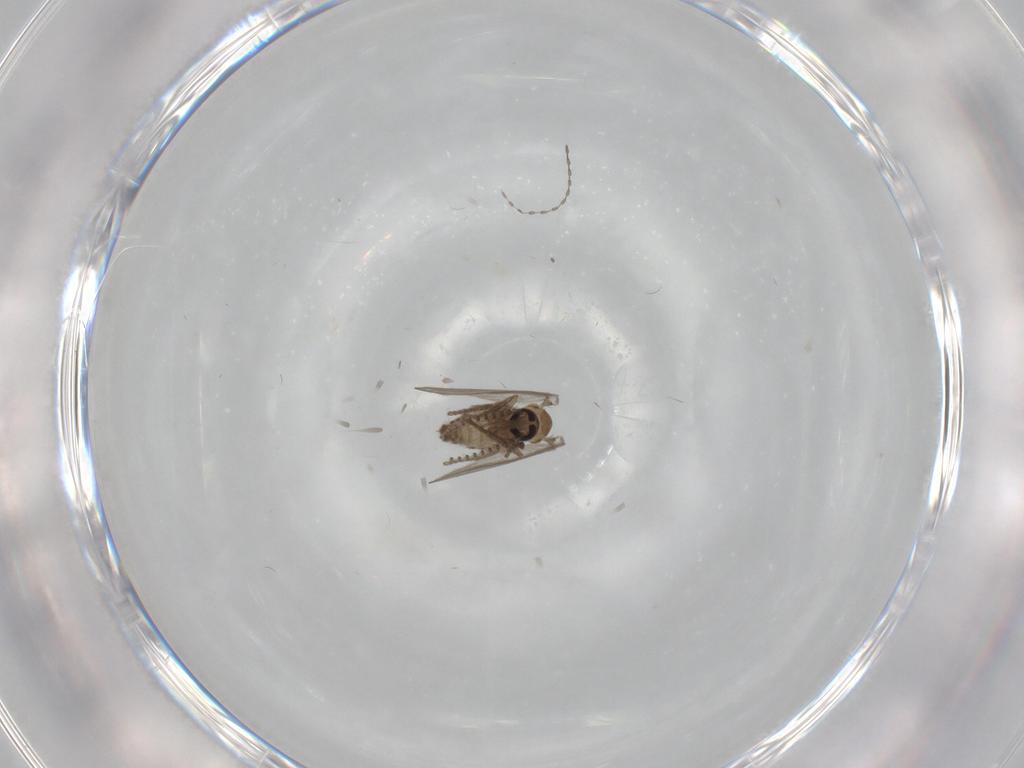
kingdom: Animalia
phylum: Arthropoda
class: Insecta
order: Diptera
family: Psychodidae
